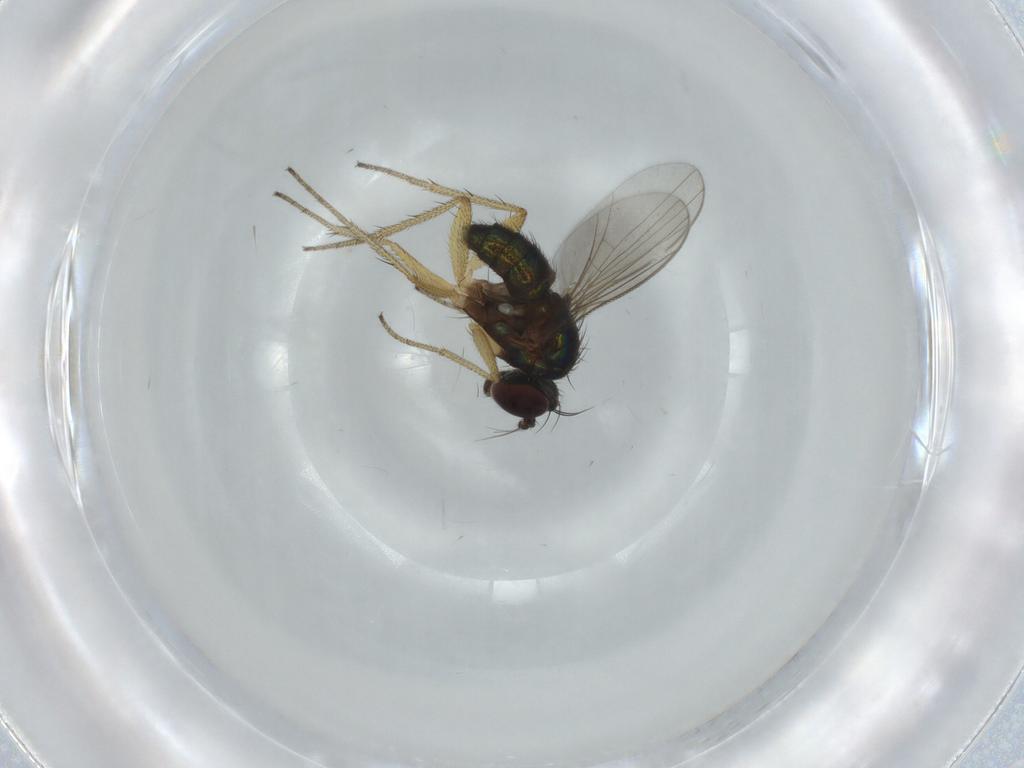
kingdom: Animalia
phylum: Arthropoda
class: Insecta
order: Diptera
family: Dolichopodidae
